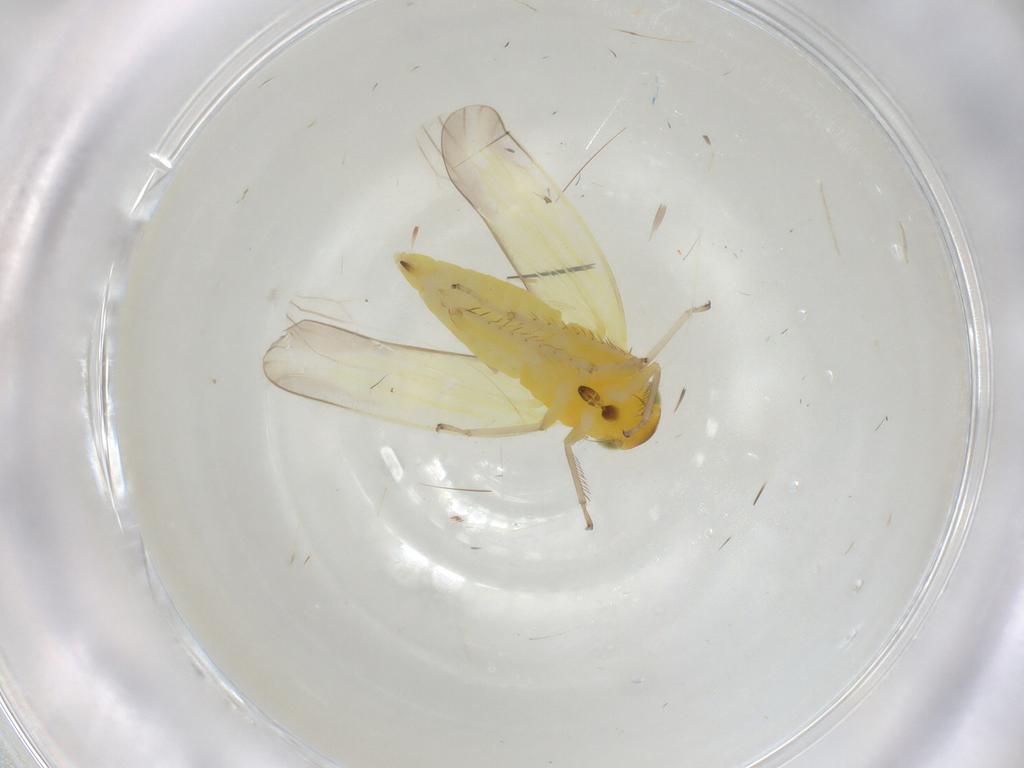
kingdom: Animalia
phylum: Arthropoda
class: Insecta
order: Hemiptera
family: Cicadellidae
